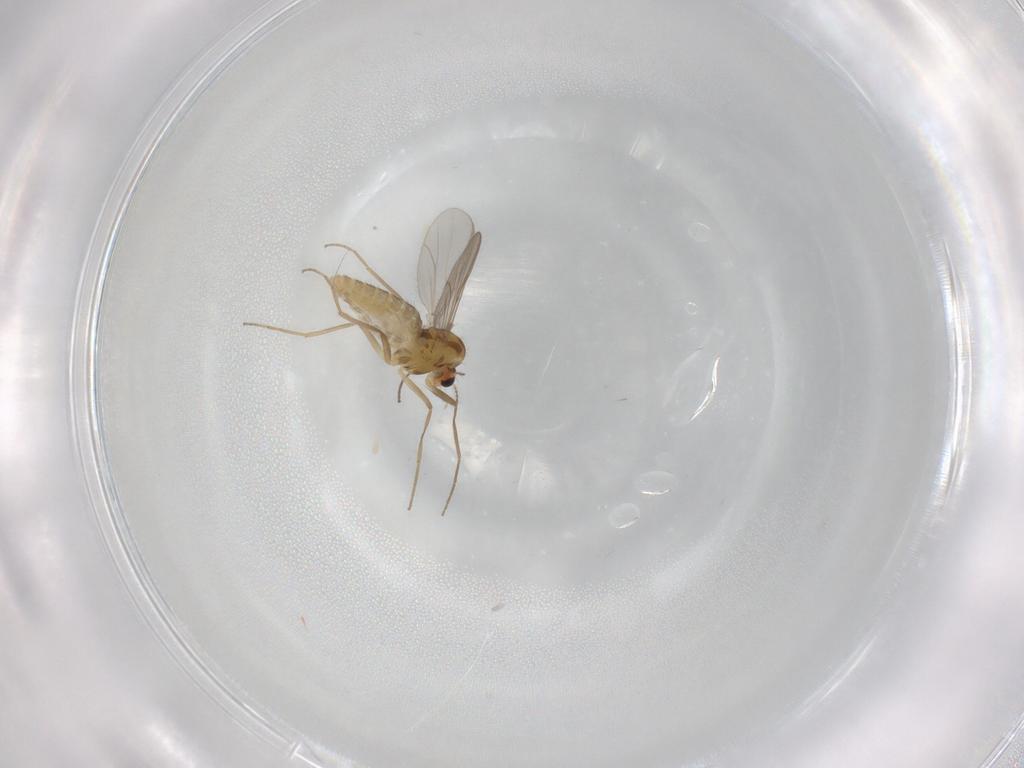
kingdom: Animalia
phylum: Arthropoda
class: Insecta
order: Diptera
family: Chironomidae
